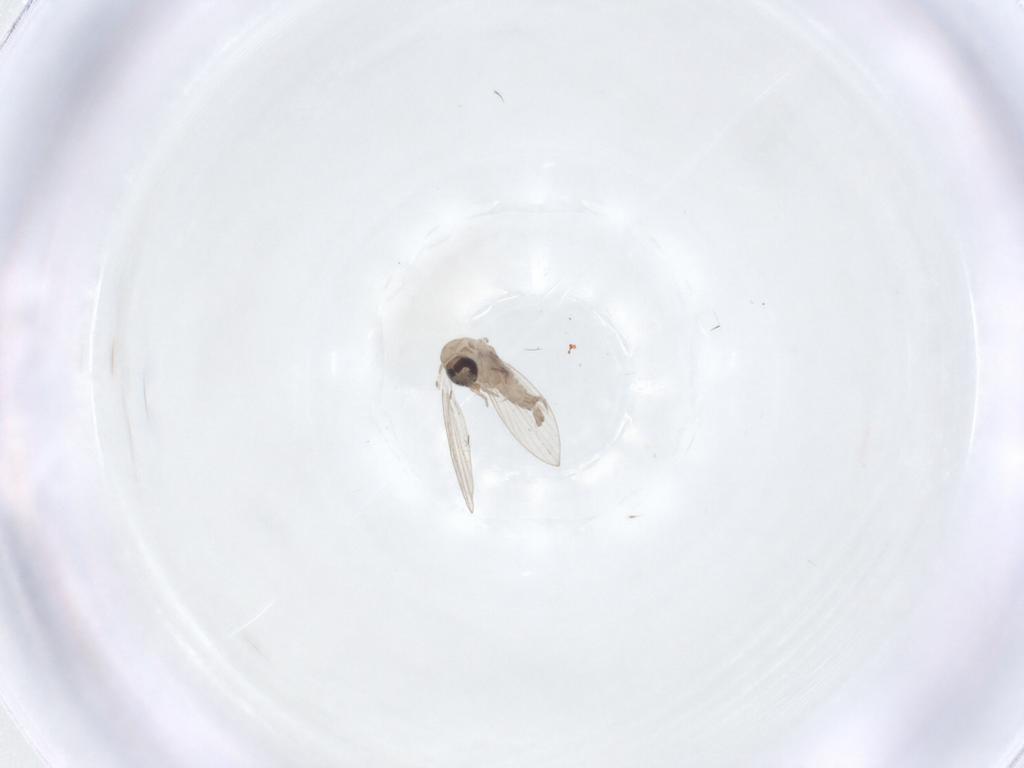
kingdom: Animalia
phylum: Arthropoda
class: Insecta
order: Diptera
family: Psychodidae
